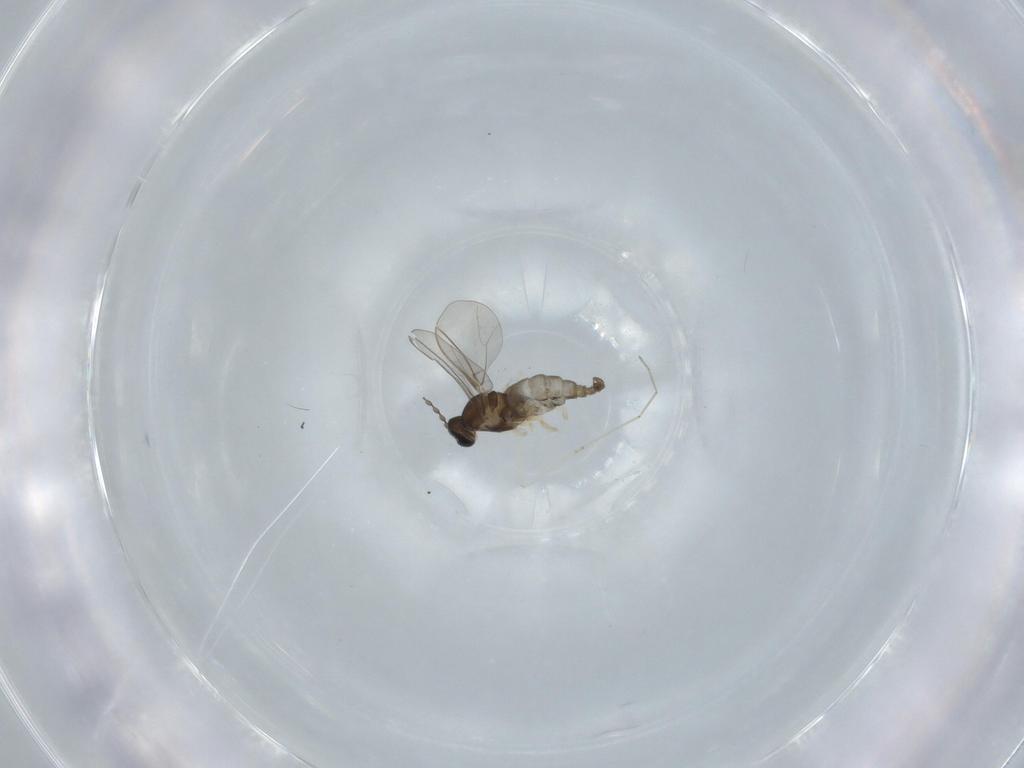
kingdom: Animalia
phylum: Arthropoda
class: Insecta
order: Diptera
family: Cecidomyiidae
